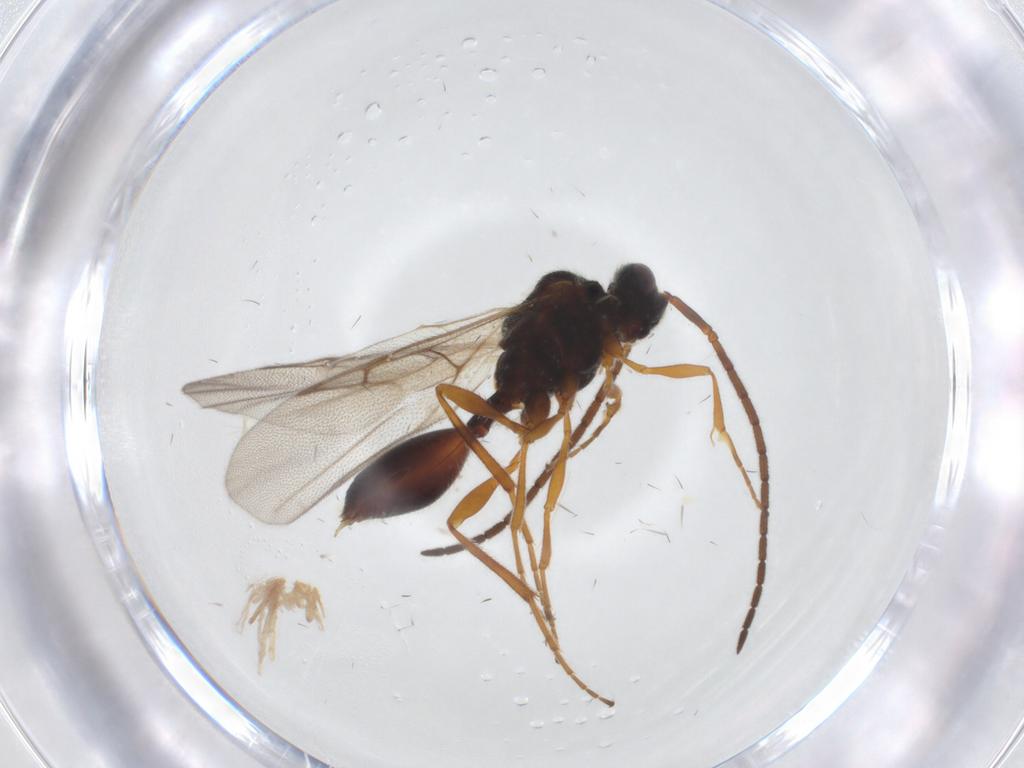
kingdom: Animalia
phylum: Arthropoda
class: Insecta
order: Hymenoptera
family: Diapriidae
